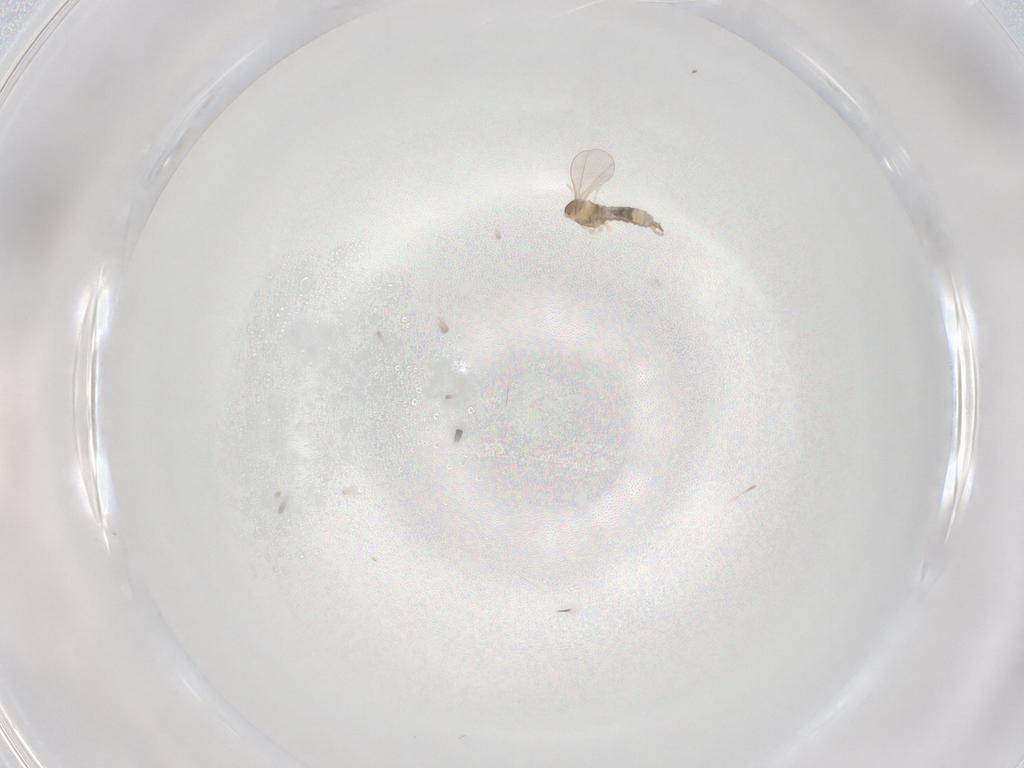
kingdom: Animalia
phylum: Arthropoda
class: Insecta
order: Diptera
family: Cecidomyiidae
